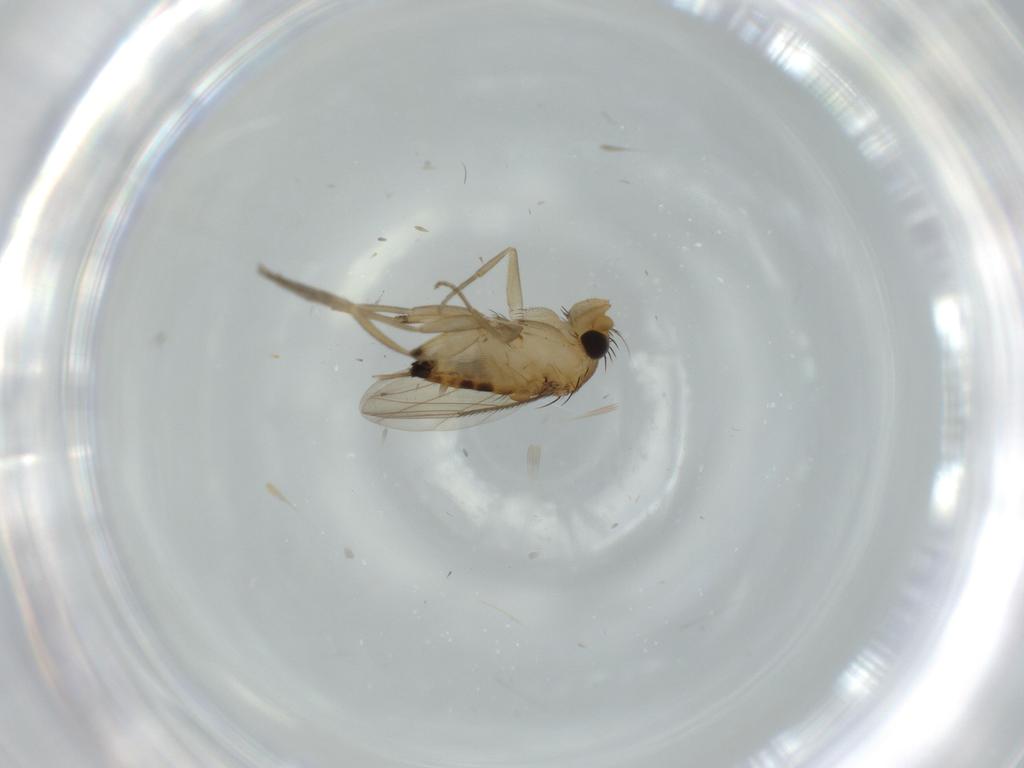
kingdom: Animalia
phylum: Arthropoda
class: Insecta
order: Diptera
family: Phoridae
